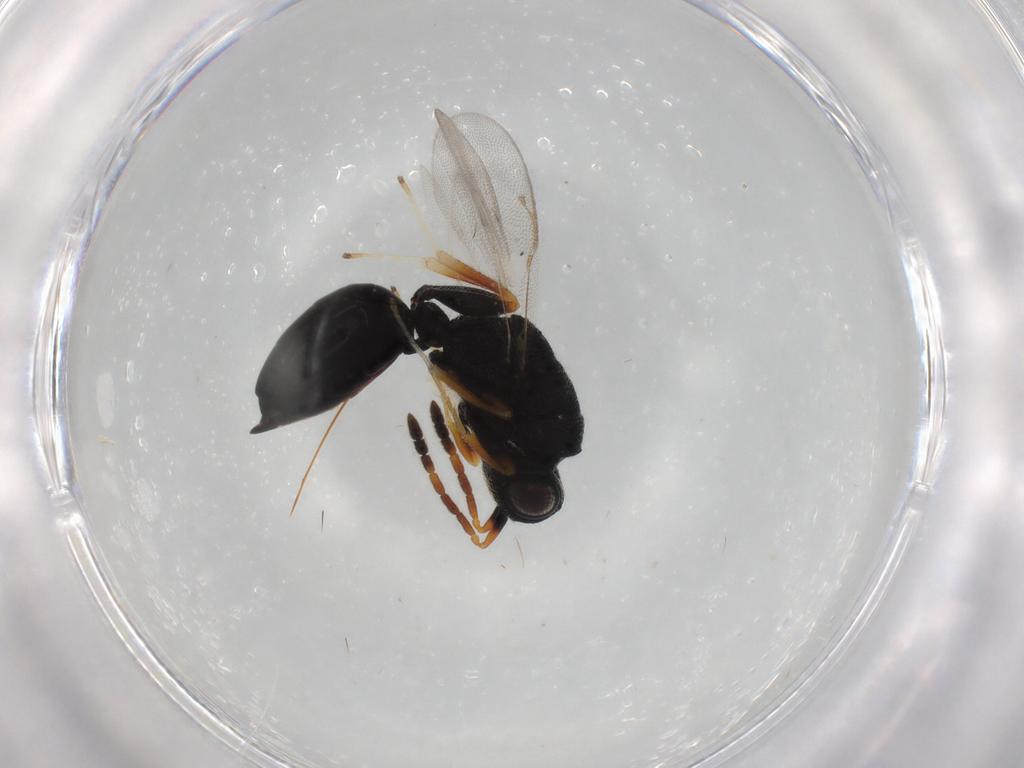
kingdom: Animalia
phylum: Arthropoda
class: Insecta
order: Hymenoptera
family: Eurytomidae
